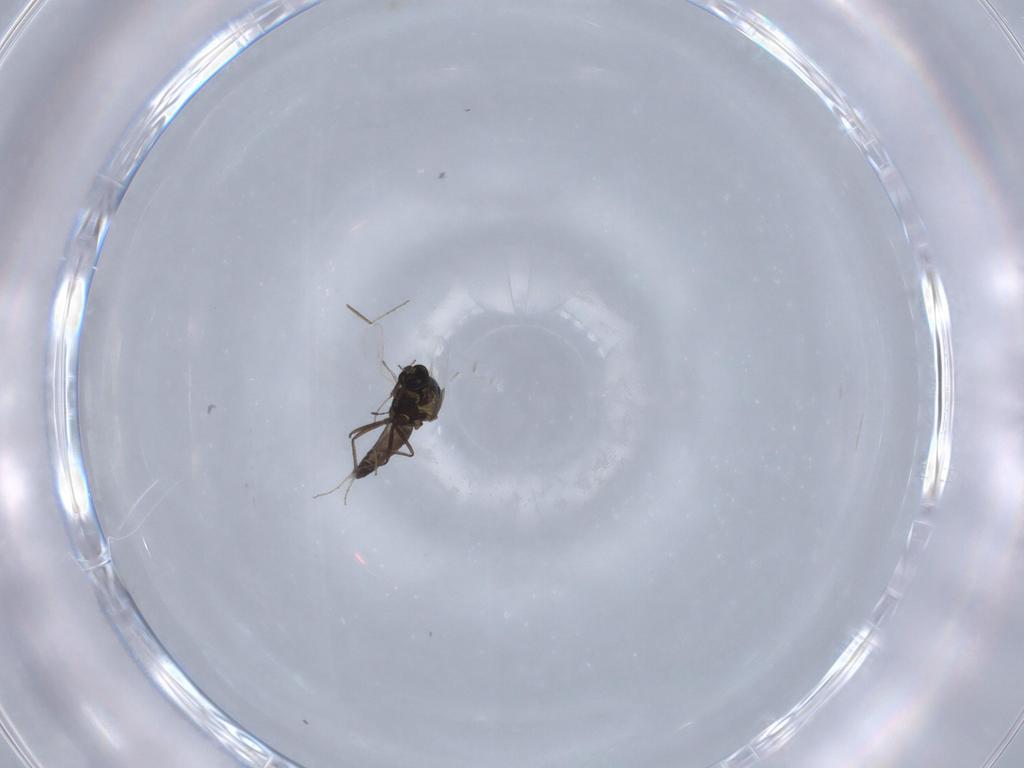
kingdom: Animalia
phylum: Arthropoda
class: Insecta
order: Diptera
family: Ceratopogonidae
